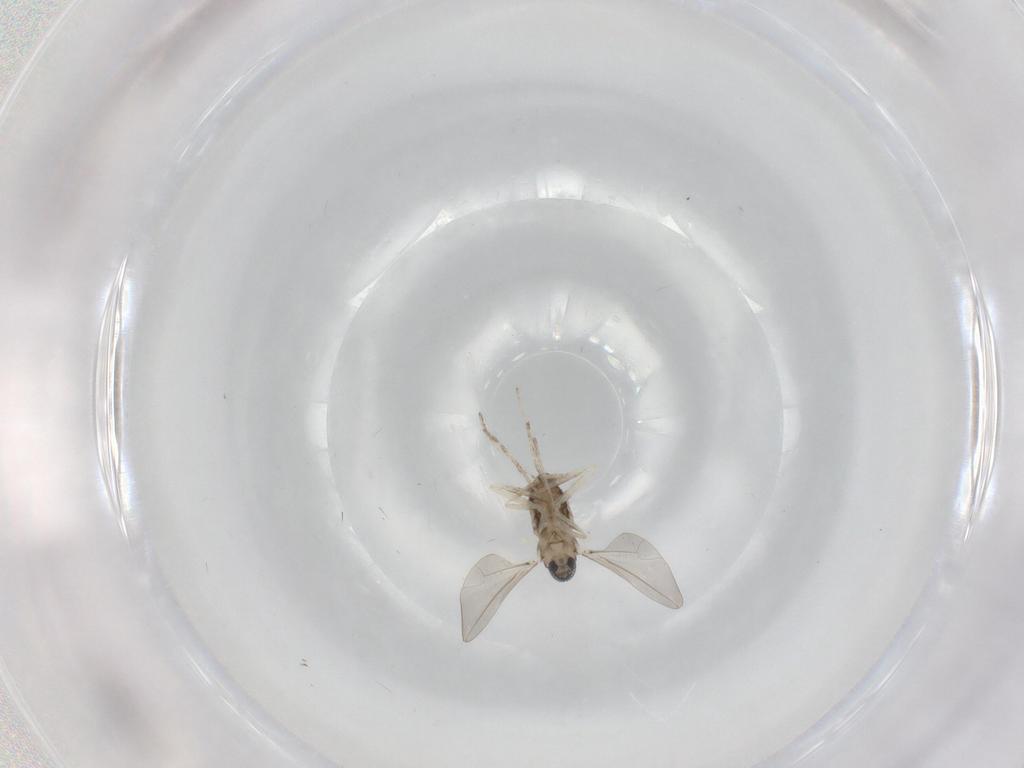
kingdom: Animalia
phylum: Arthropoda
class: Insecta
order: Diptera
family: Cecidomyiidae
